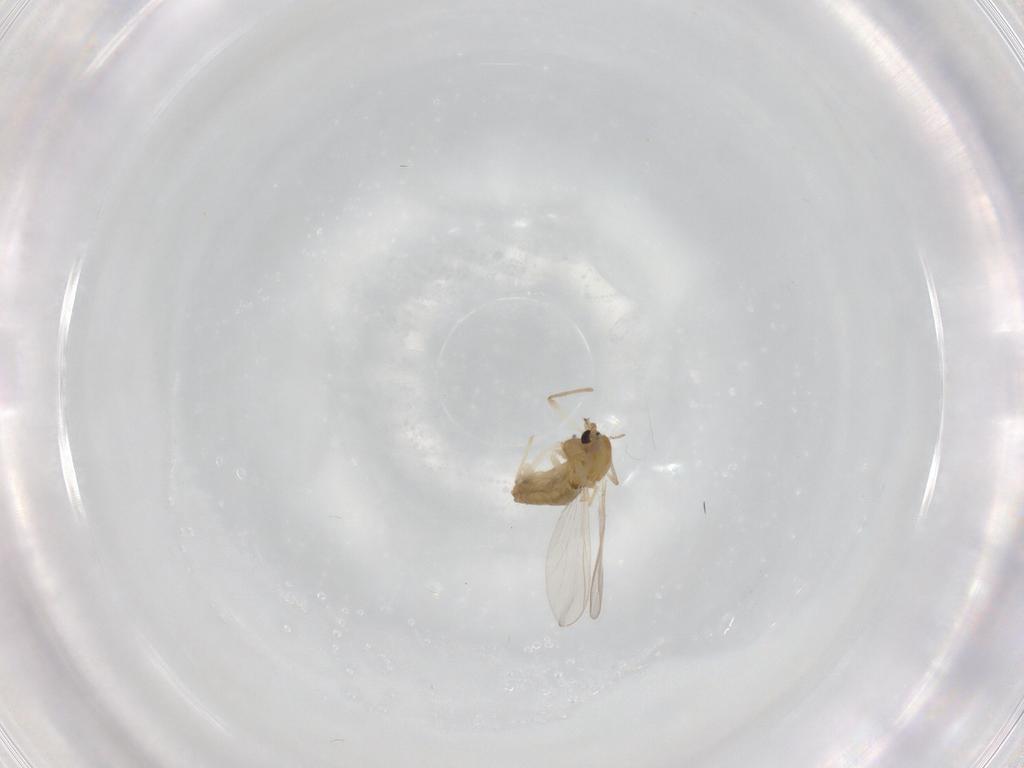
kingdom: Animalia
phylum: Arthropoda
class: Insecta
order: Diptera
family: Chironomidae
